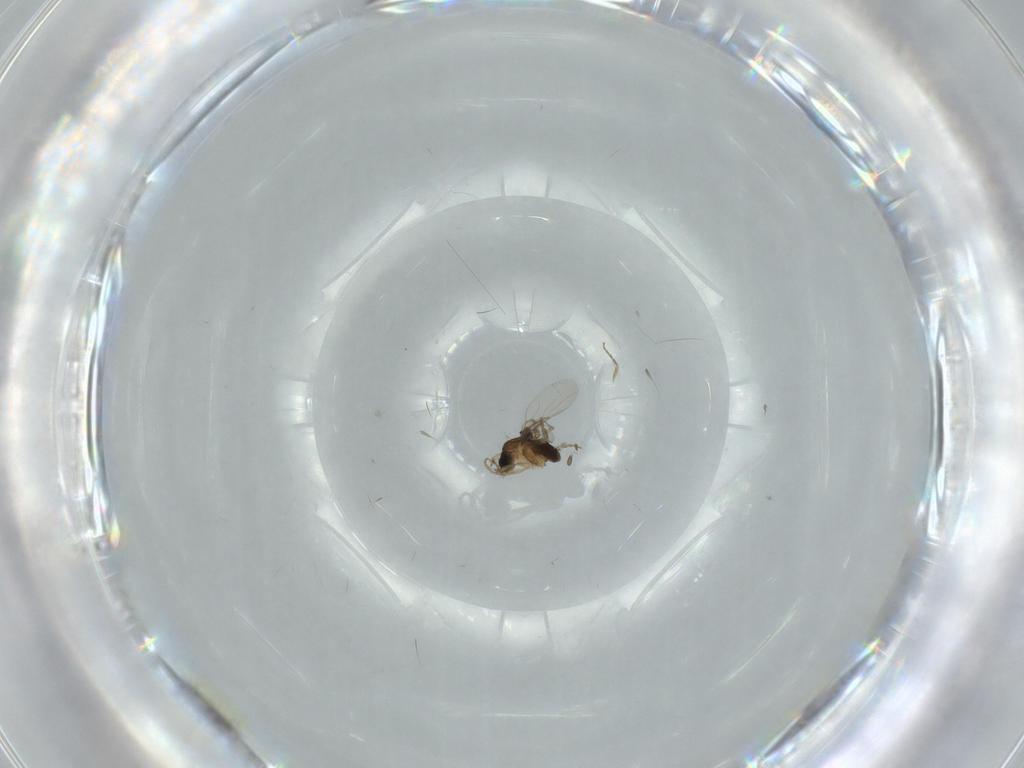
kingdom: Animalia
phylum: Arthropoda
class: Insecta
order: Diptera
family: Phoridae
